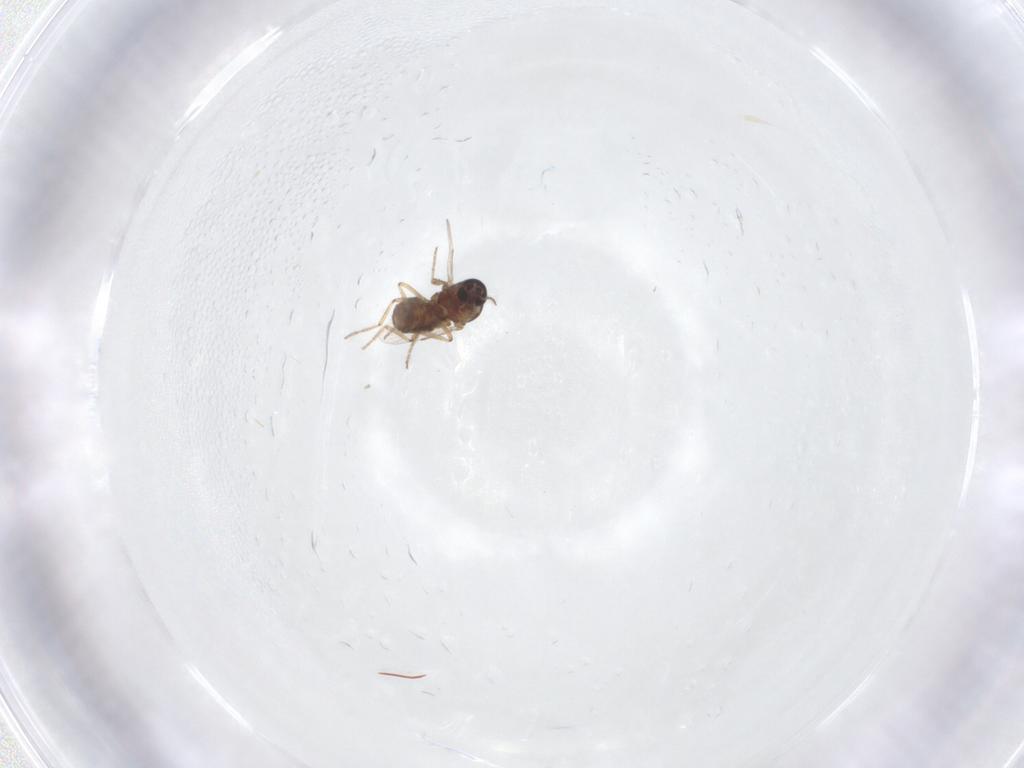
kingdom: Animalia
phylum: Arthropoda
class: Insecta
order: Diptera
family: Ceratopogonidae
